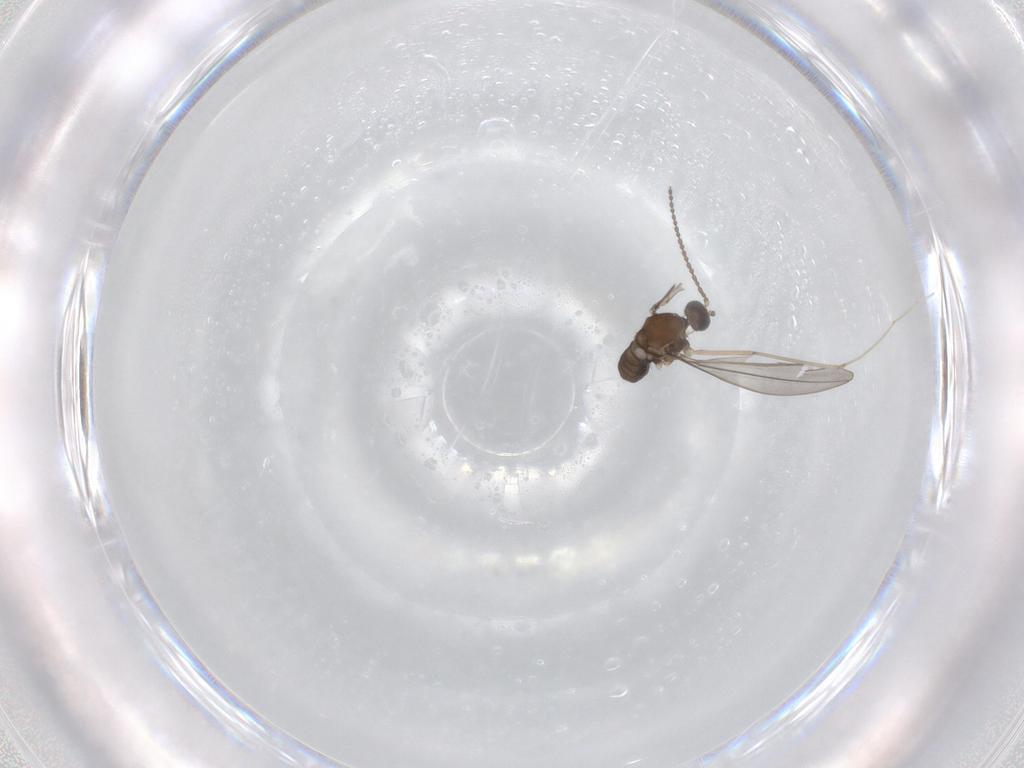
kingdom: Animalia
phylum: Arthropoda
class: Insecta
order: Diptera
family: Cecidomyiidae
